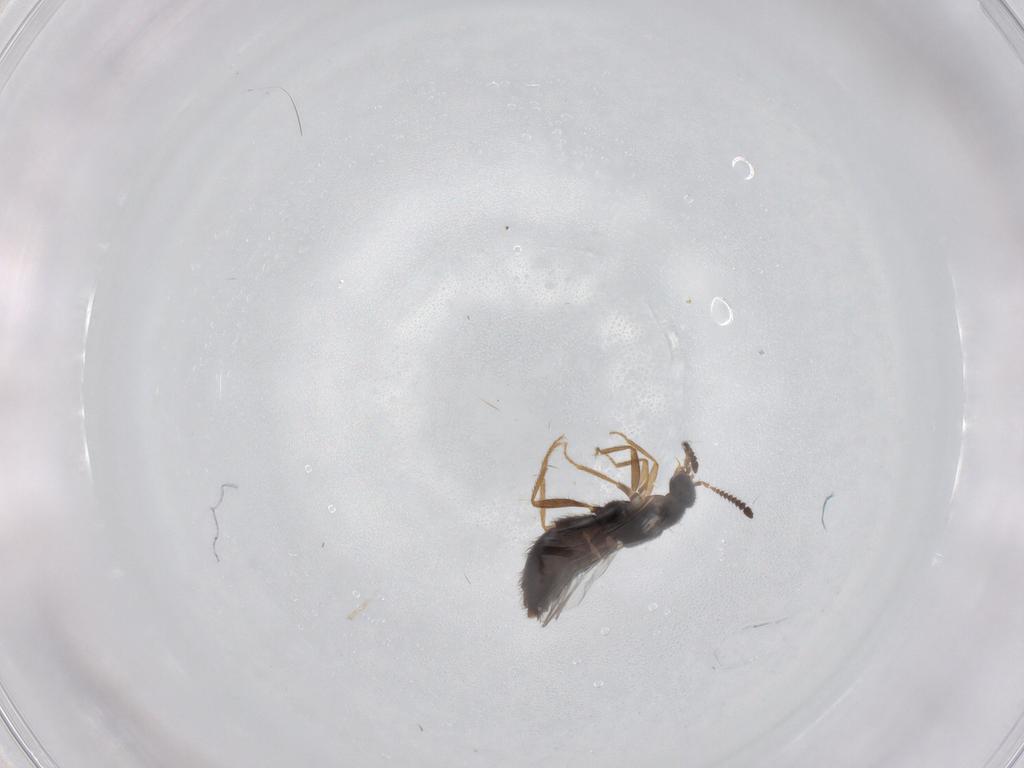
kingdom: Animalia
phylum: Arthropoda
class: Insecta
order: Coleoptera
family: Staphylinidae
